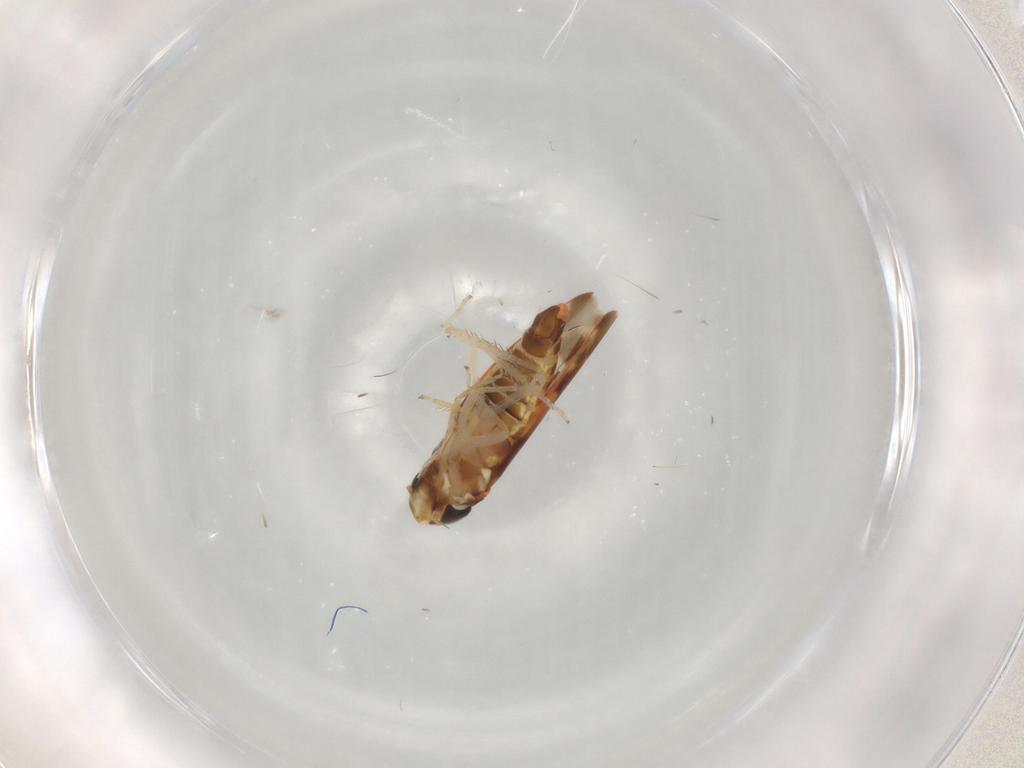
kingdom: Animalia
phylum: Arthropoda
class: Insecta
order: Hemiptera
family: Cicadellidae
